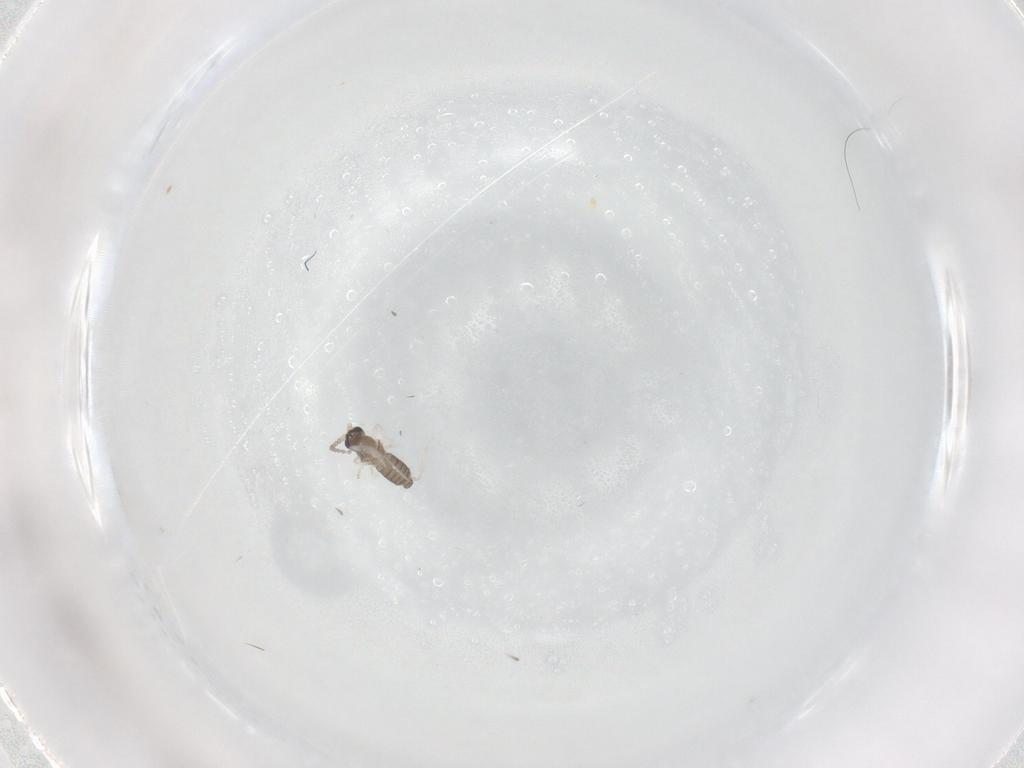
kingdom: Animalia
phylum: Arthropoda
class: Insecta
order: Diptera
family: Cecidomyiidae
